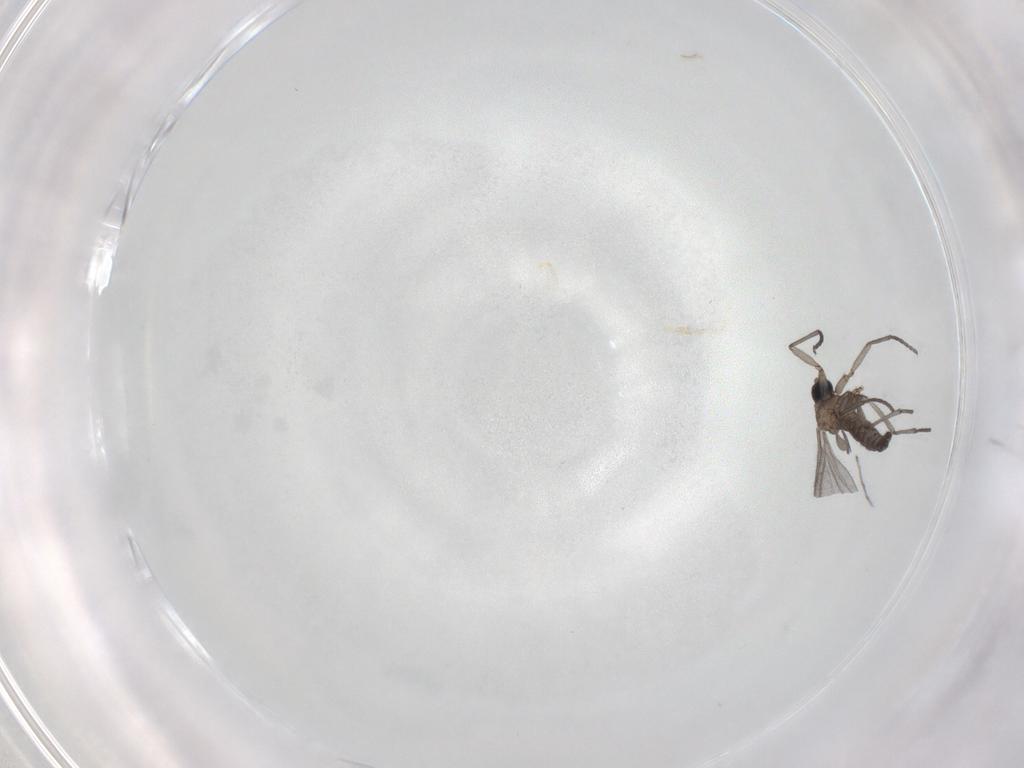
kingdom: Animalia
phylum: Arthropoda
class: Insecta
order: Diptera
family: Sciaridae
